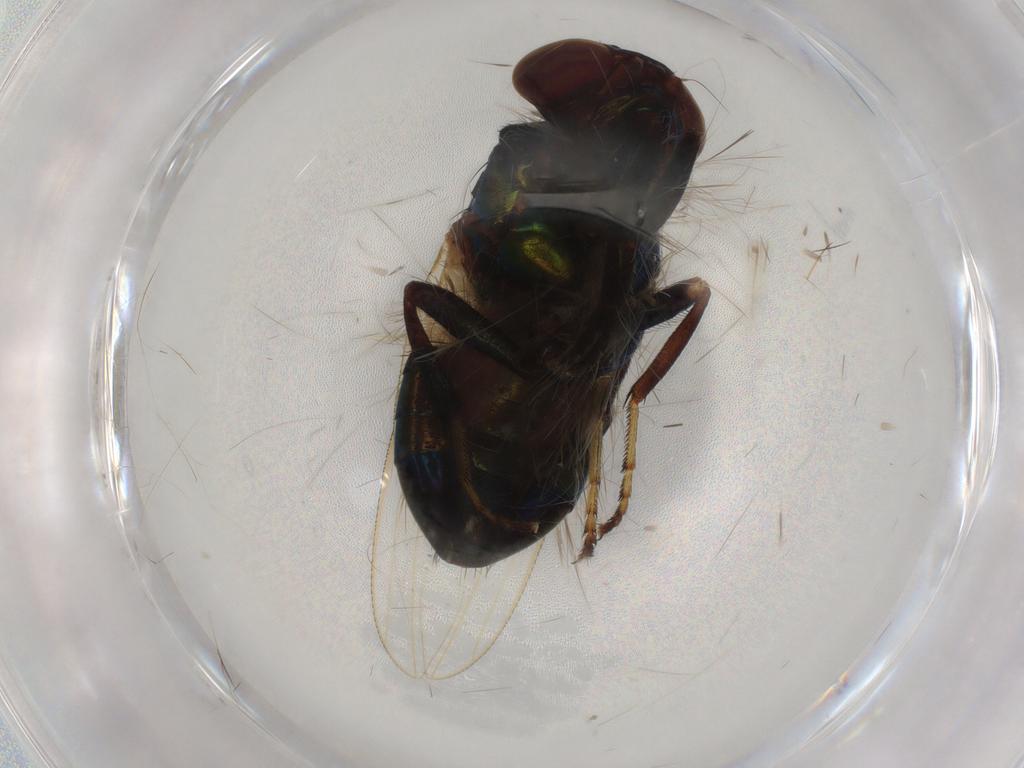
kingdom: Animalia
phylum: Arthropoda
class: Insecta
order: Diptera
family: Ulidiidae
